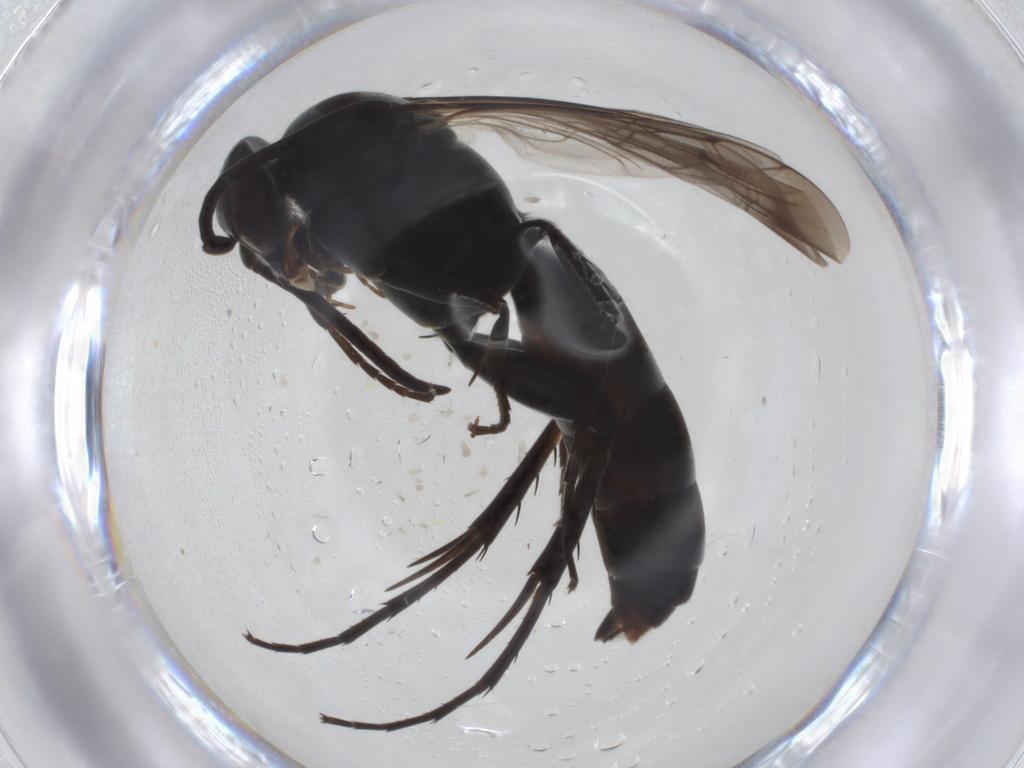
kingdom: Animalia
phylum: Arthropoda
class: Insecta
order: Hymenoptera
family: Pompilidae
